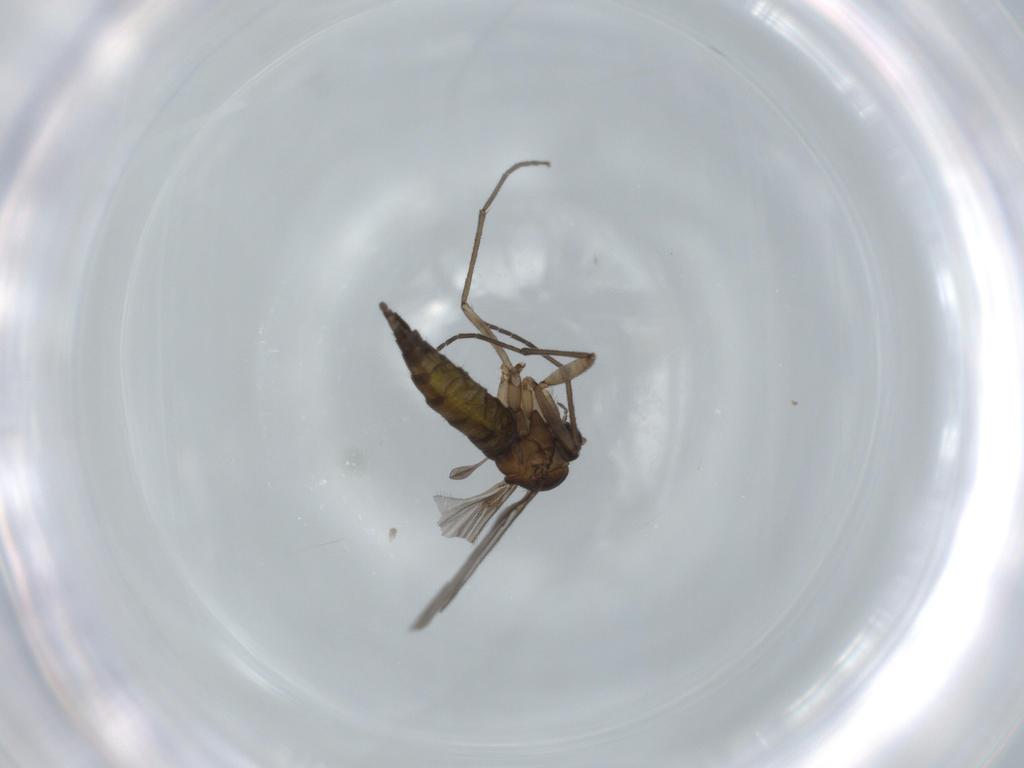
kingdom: Animalia
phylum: Arthropoda
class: Insecta
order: Diptera
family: Sciaridae
